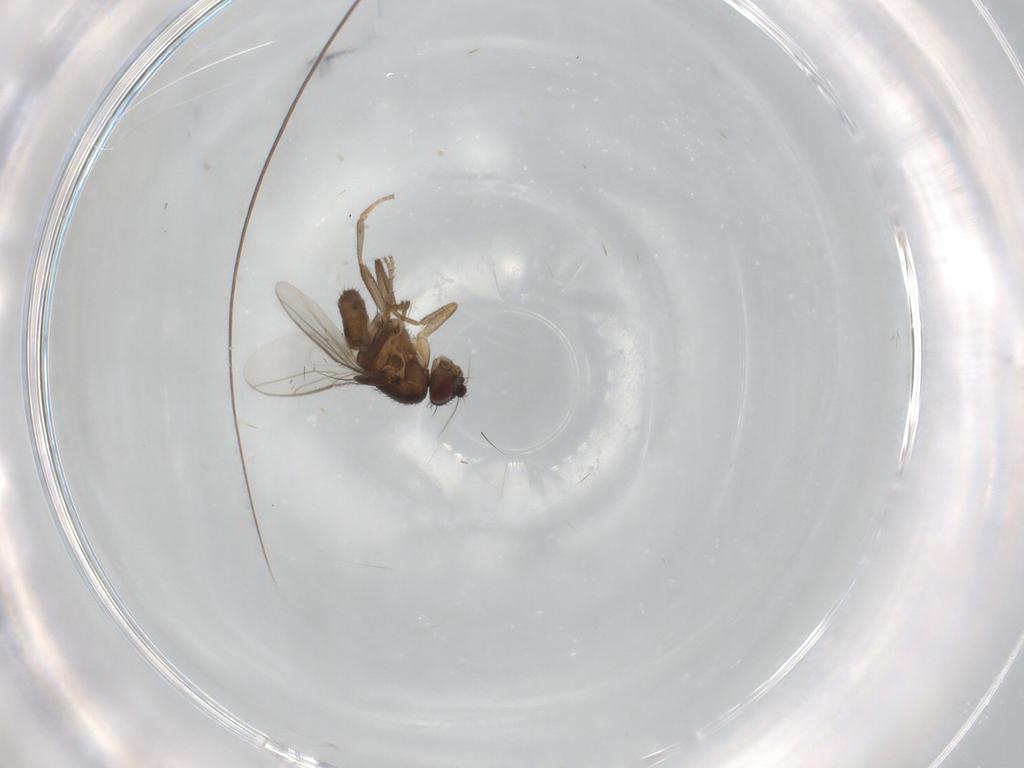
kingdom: Animalia
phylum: Arthropoda
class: Insecta
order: Diptera
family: Sphaeroceridae
